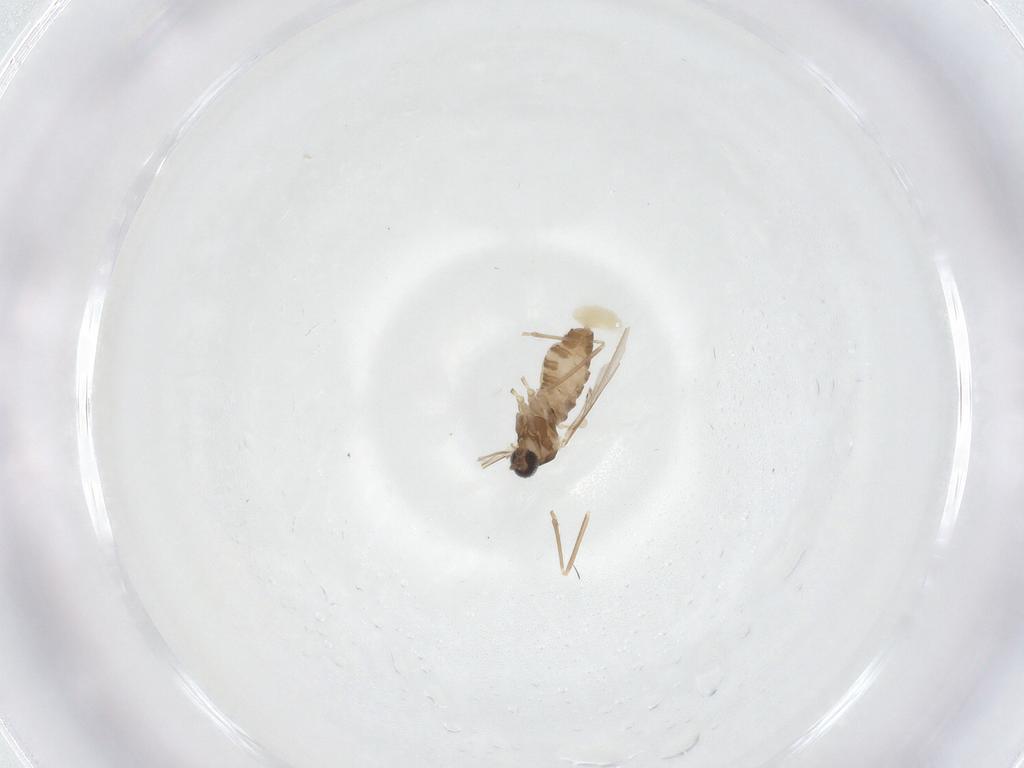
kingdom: Animalia
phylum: Arthropoda
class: Insecta
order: Diptera
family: Cecidomyiidae
